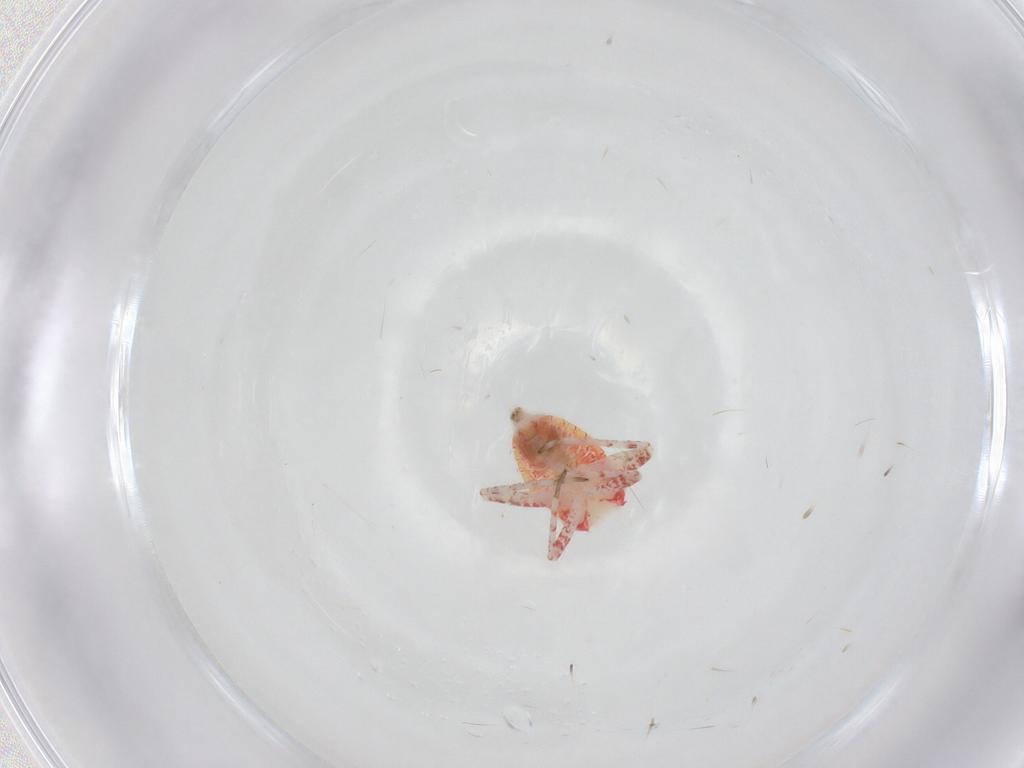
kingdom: Animalia
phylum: Arthropoda
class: Insecta
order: Hemiptera
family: Miridae
